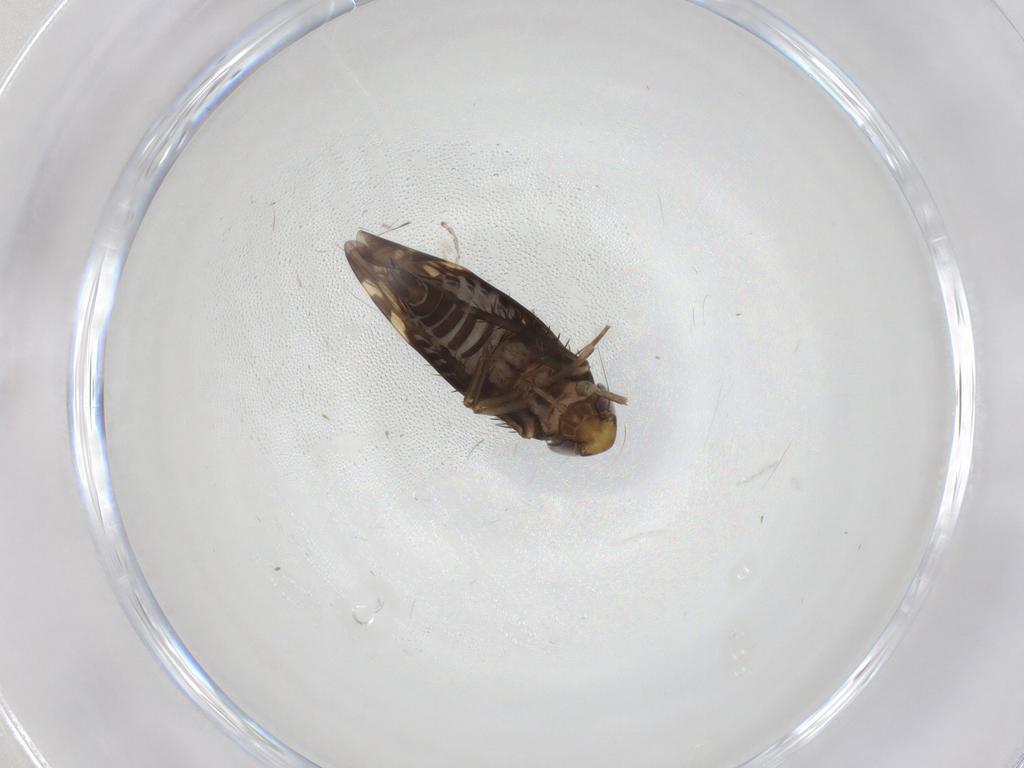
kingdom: Animalia
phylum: Arthropoda
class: Insecta
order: Hemiptera
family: Cicadellidae
